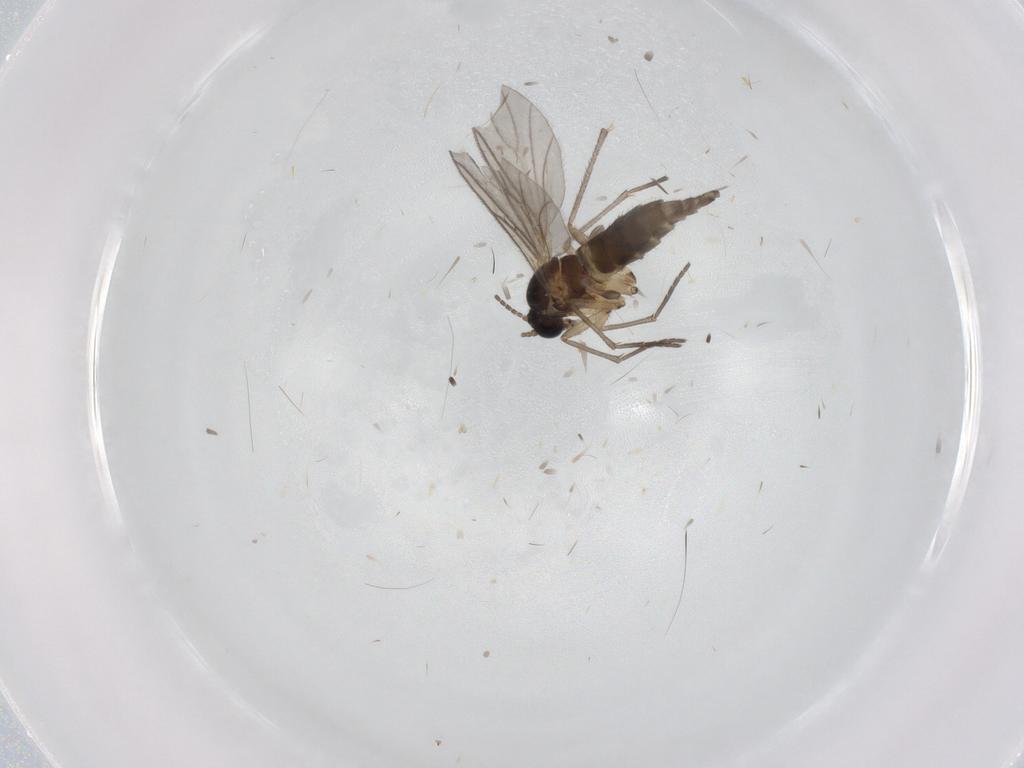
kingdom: Animalia
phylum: Arthropoda
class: Insecta
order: Diptera
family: Sciaridae
